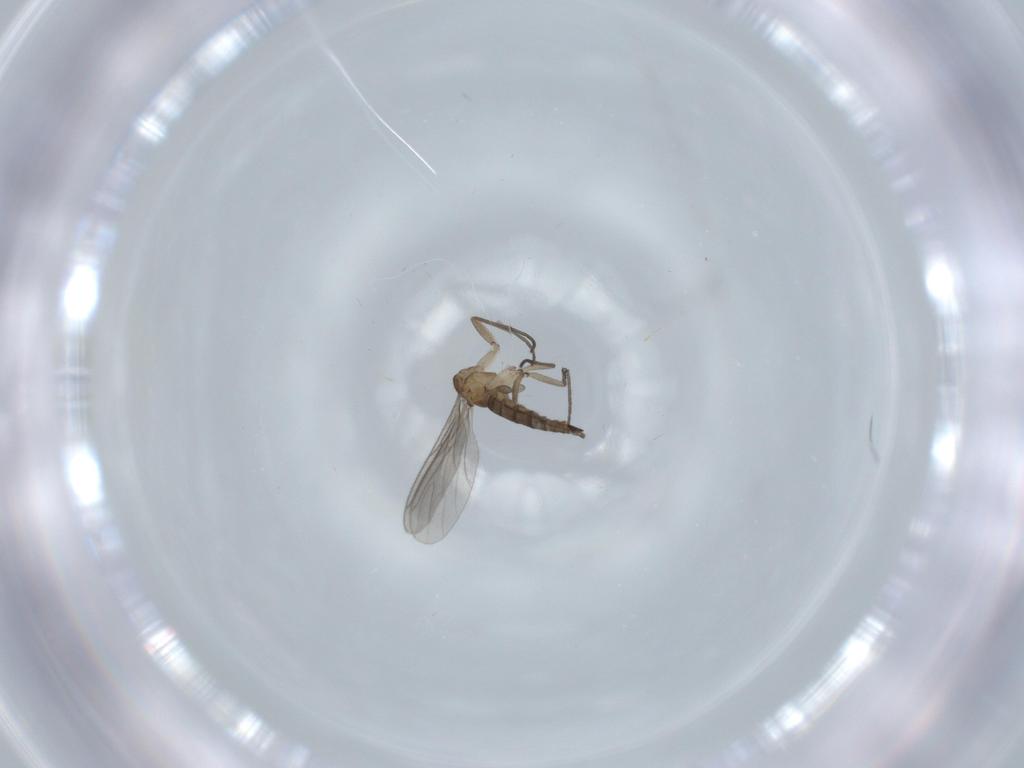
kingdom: Animalia
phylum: Arthropoda
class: Insecta
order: Diptera
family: Sciaridae
